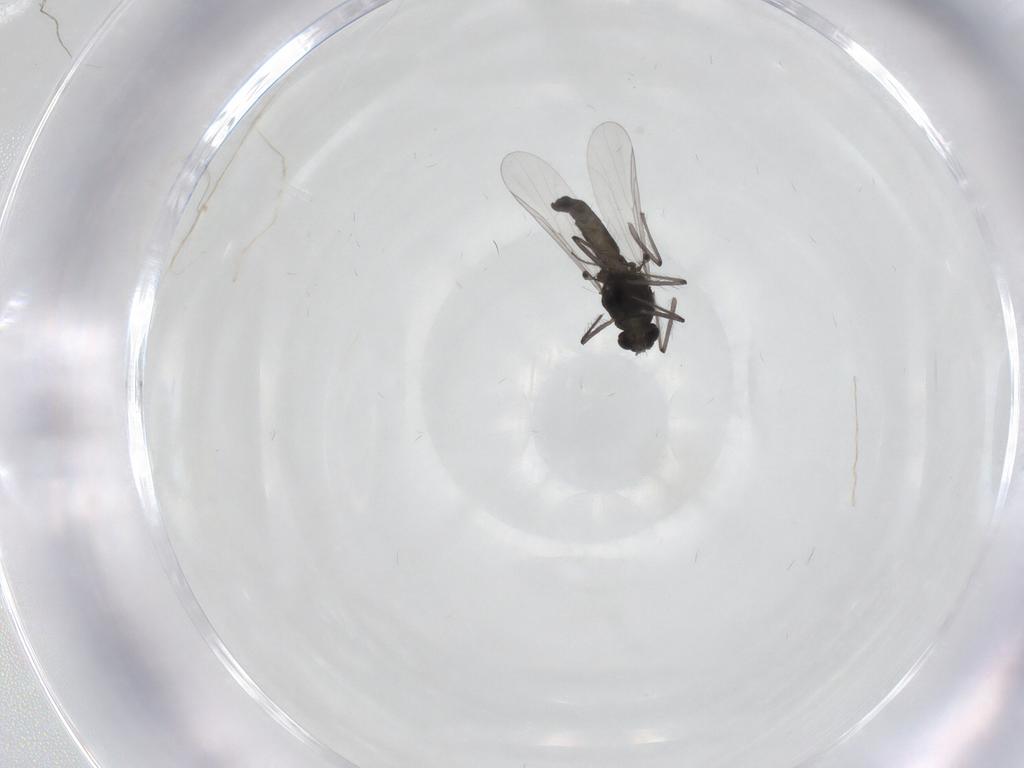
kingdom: Animalia
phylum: Arthropoda
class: Insecta
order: Diptera
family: Chironomidae
